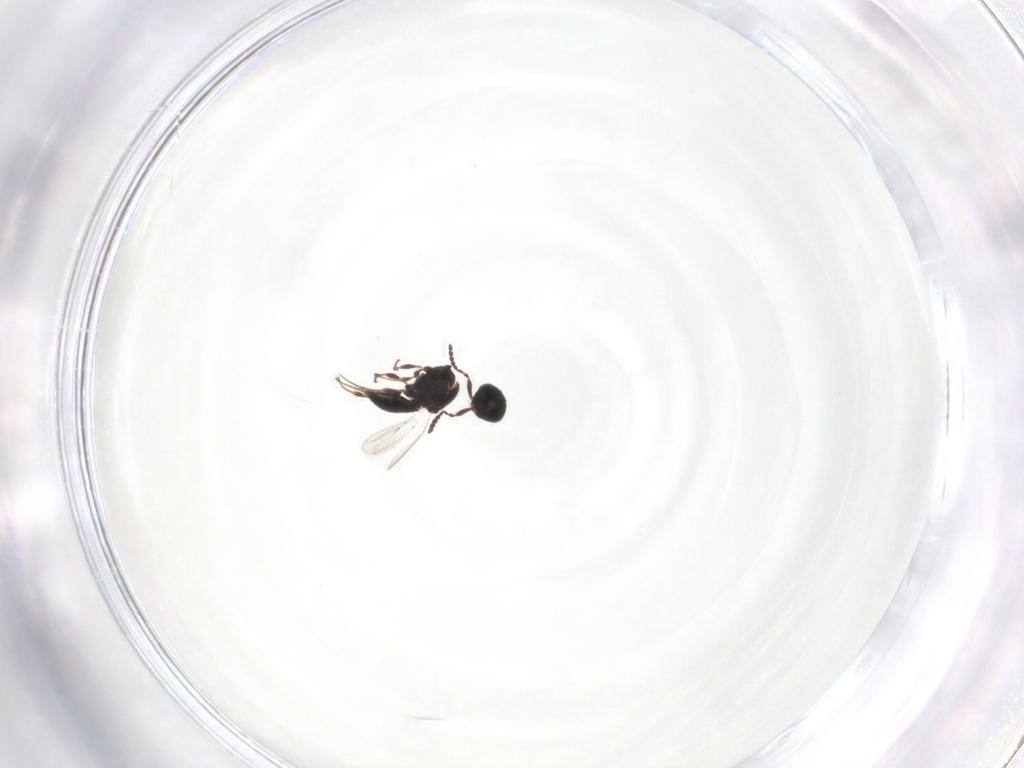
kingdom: Animalia
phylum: Arthropoda
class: Insecta
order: Hymenoptera
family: Platygastridae
